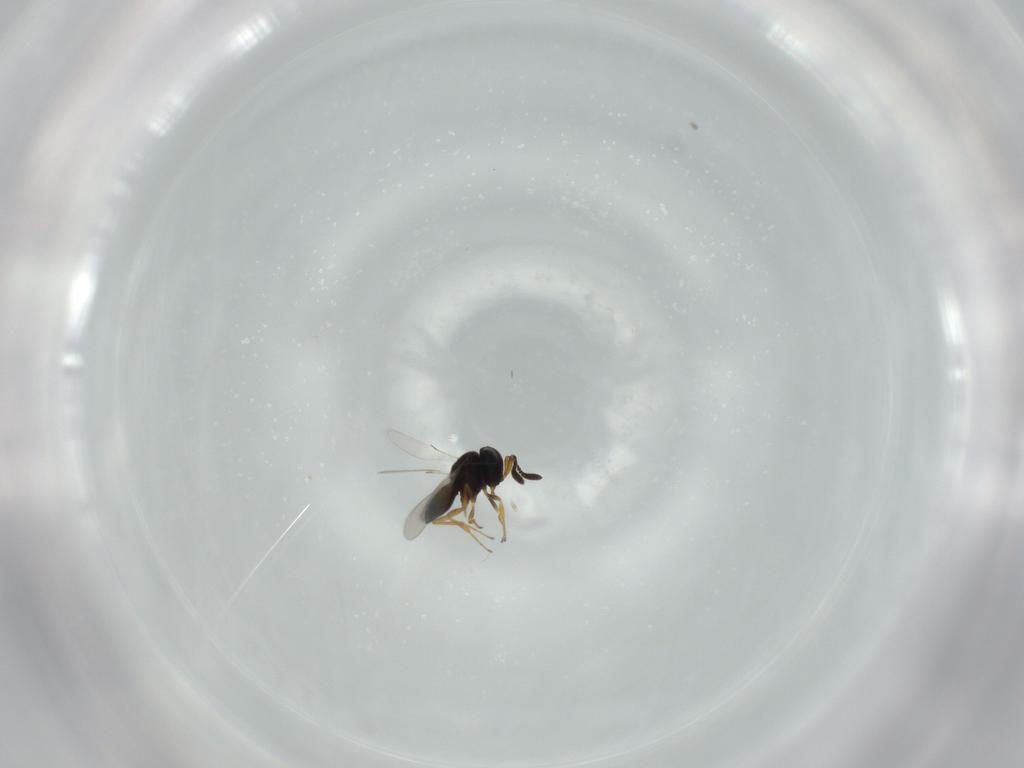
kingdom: Animalia
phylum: Arthropoda
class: Insecta
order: Hymenoptera
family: Scelionidae
